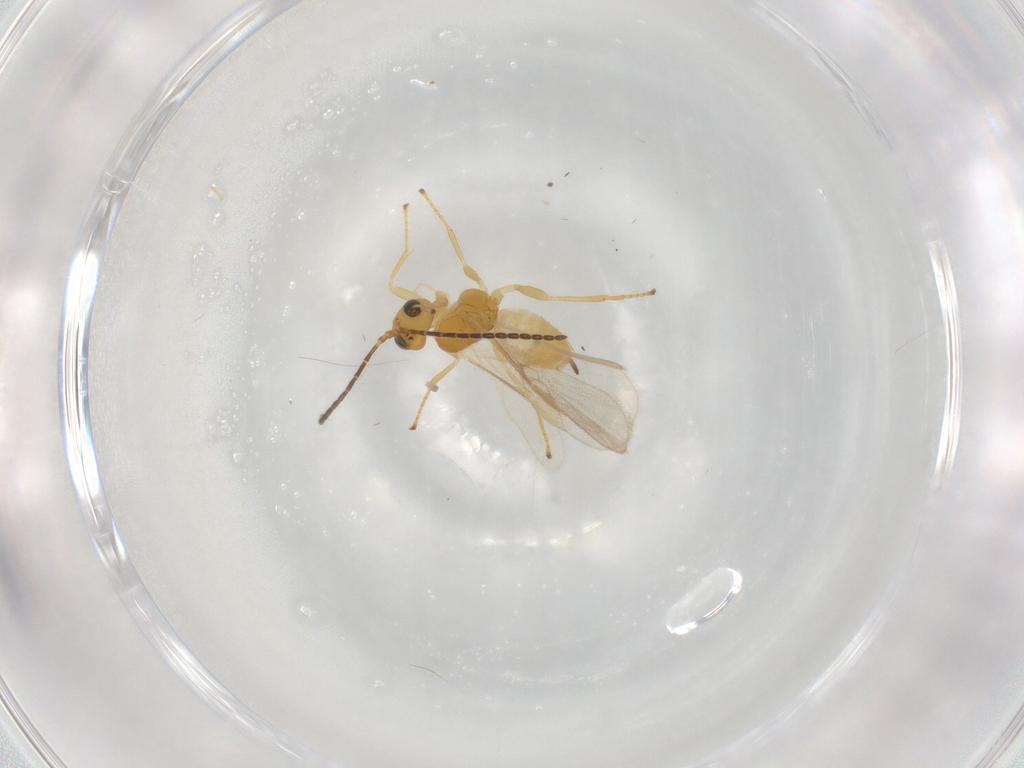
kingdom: Animalia
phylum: Arthropoda
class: Insecta
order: Hymenoptera
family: Braconidae
